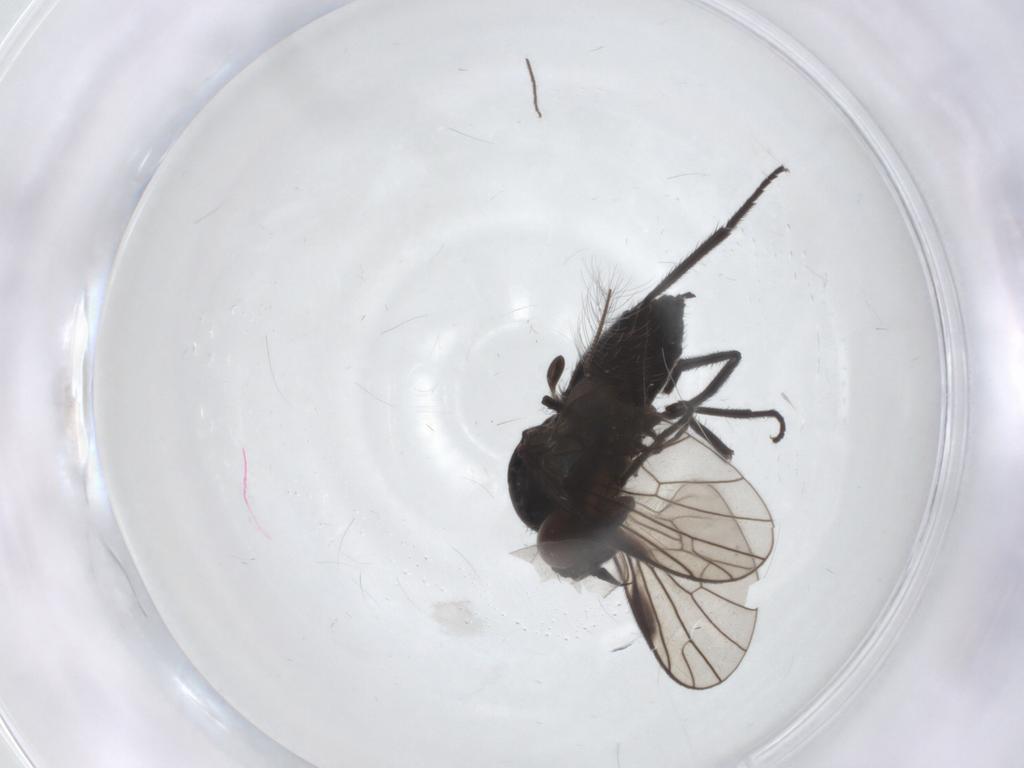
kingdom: Animalia
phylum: Arthropoda
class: Insecta
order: Diptera
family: Empididae
